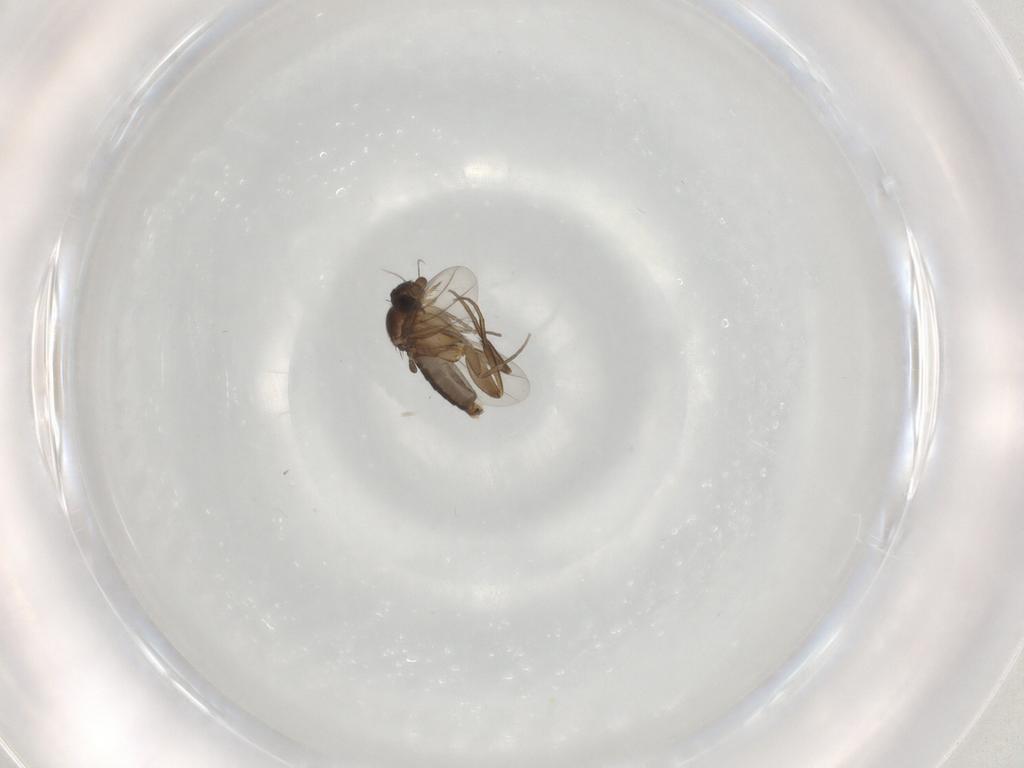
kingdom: Animalia
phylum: Arthropoda
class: Insecta
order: Diptera
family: Phoridae
